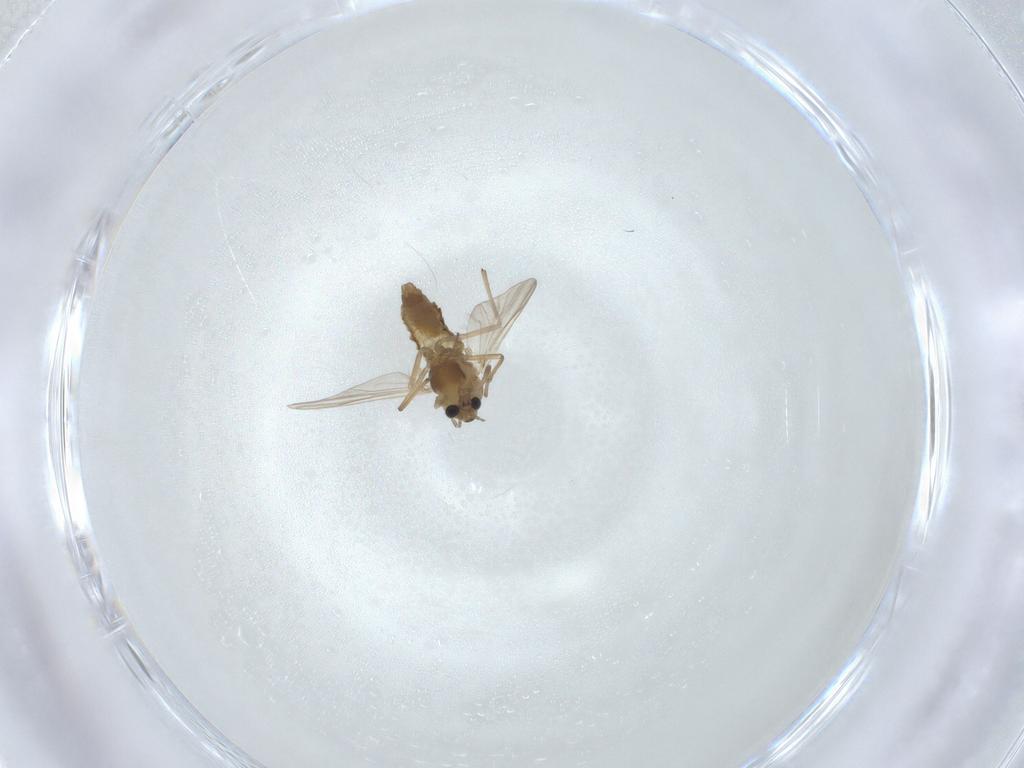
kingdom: Animalia
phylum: Arthropoda
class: Insecta
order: Diptera
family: Chironomidae
